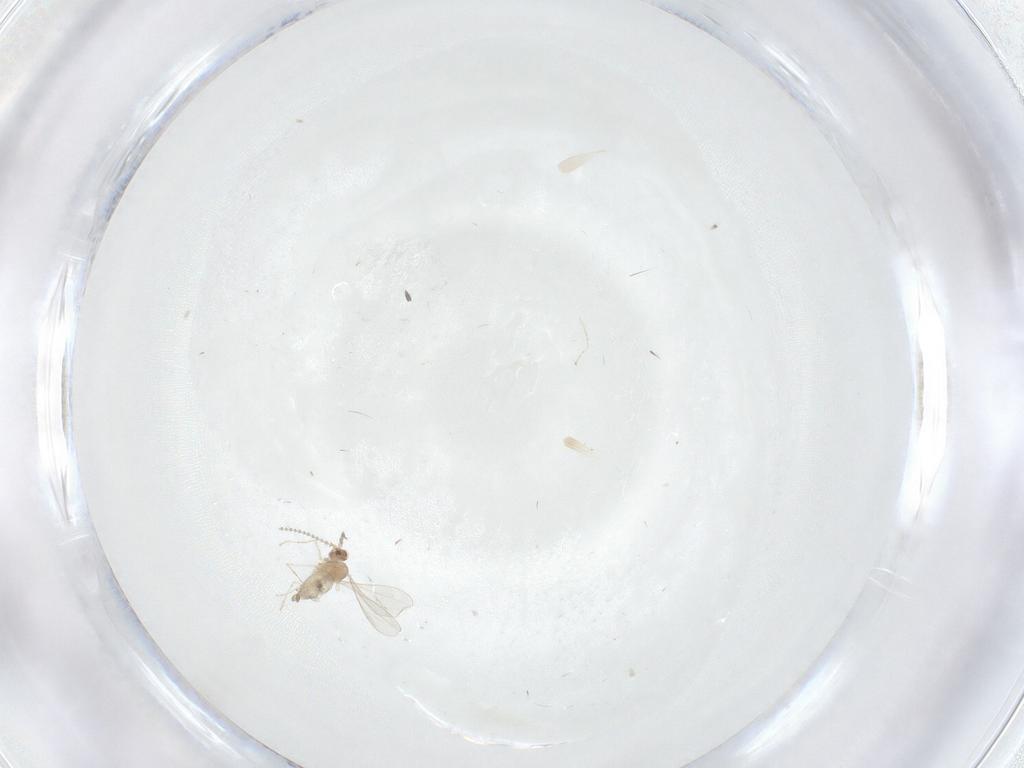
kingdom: Animalia
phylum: Arthropoda
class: Insecta
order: Diptera
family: Cecidomyiidae
